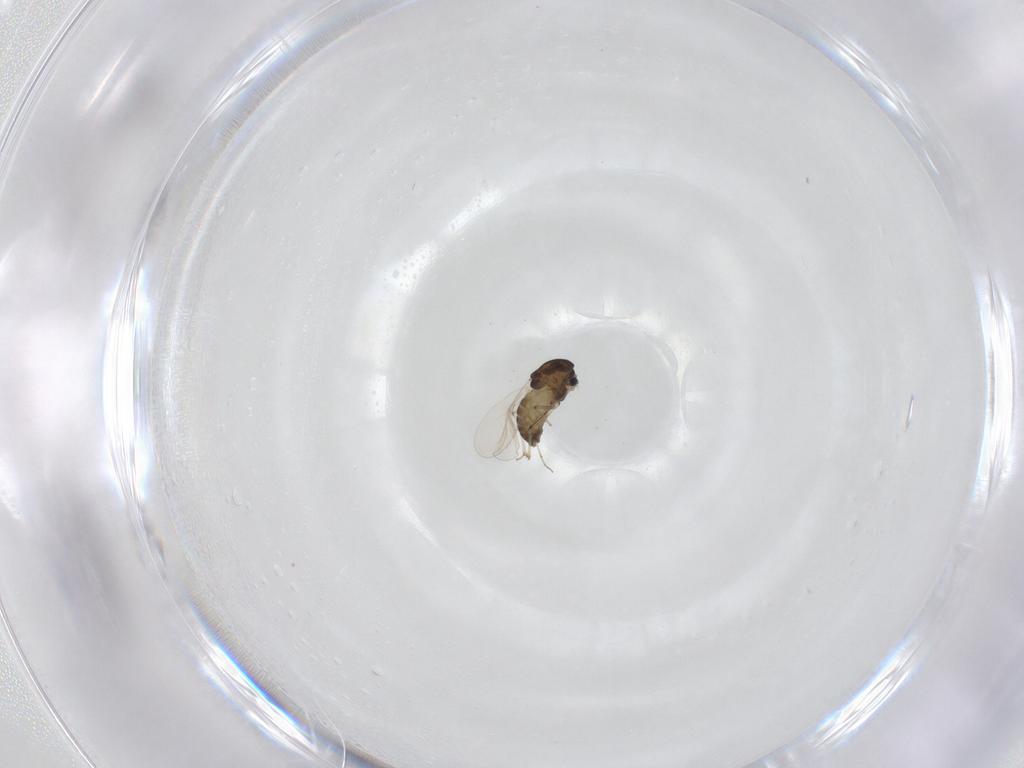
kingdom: Animalia
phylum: Arthropoda
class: Insecta
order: Diptera
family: Chironomidae
